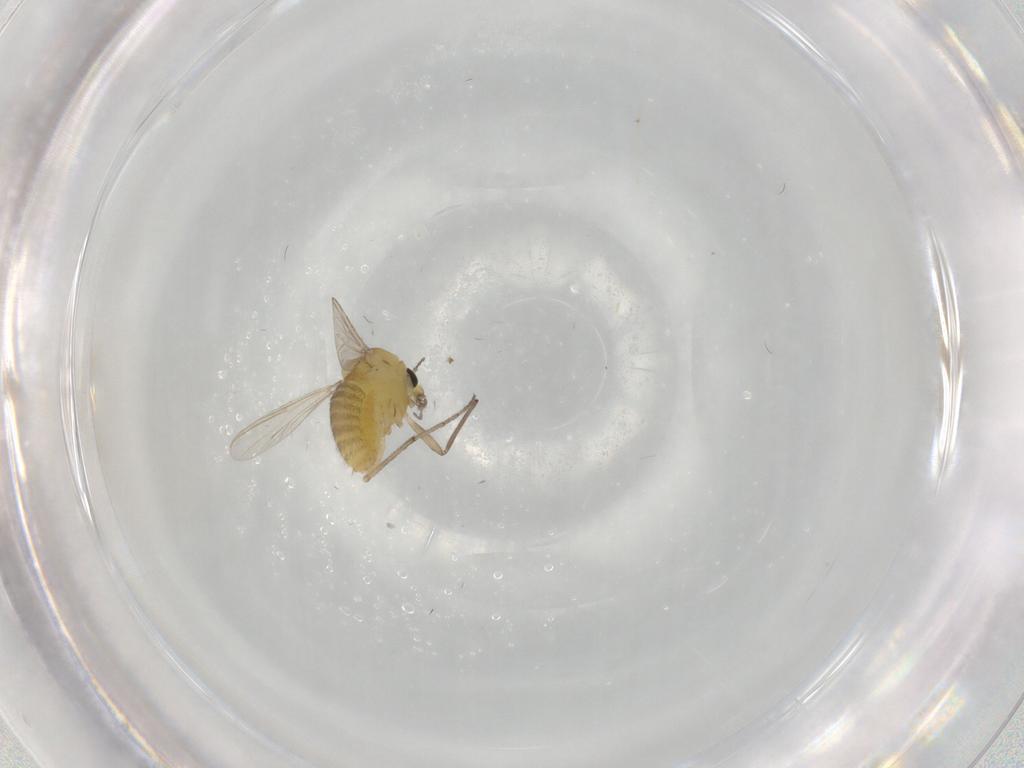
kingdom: Animalia
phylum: Arthropoda
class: Insecta
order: Diptera
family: Chironomidae
